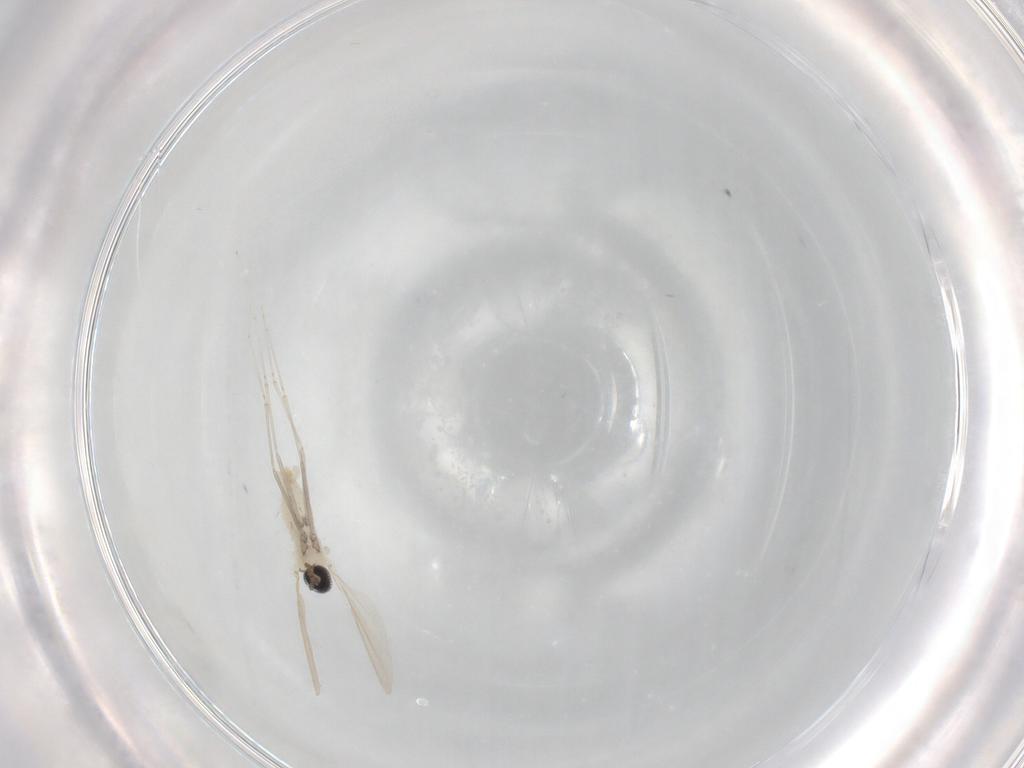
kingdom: Animalia
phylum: Arthropoda
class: Insecta
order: Diptera
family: Cecidomyiidae
